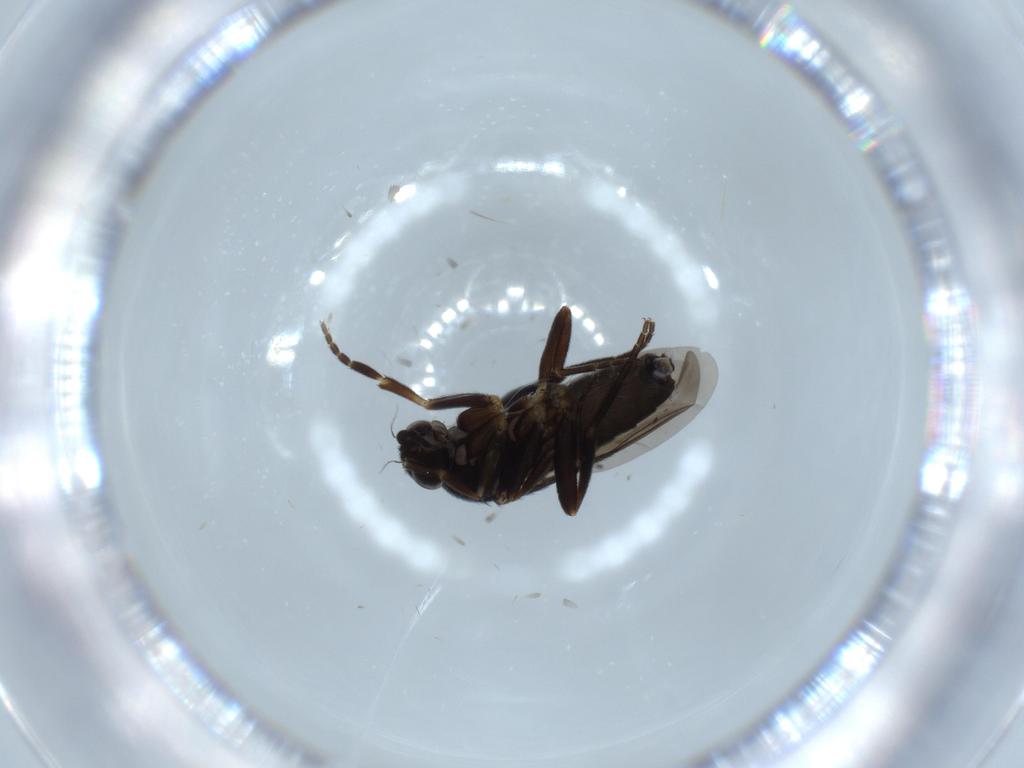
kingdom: Animalia
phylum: Arthropoda
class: Insecta
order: Diptera
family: Phoridae
